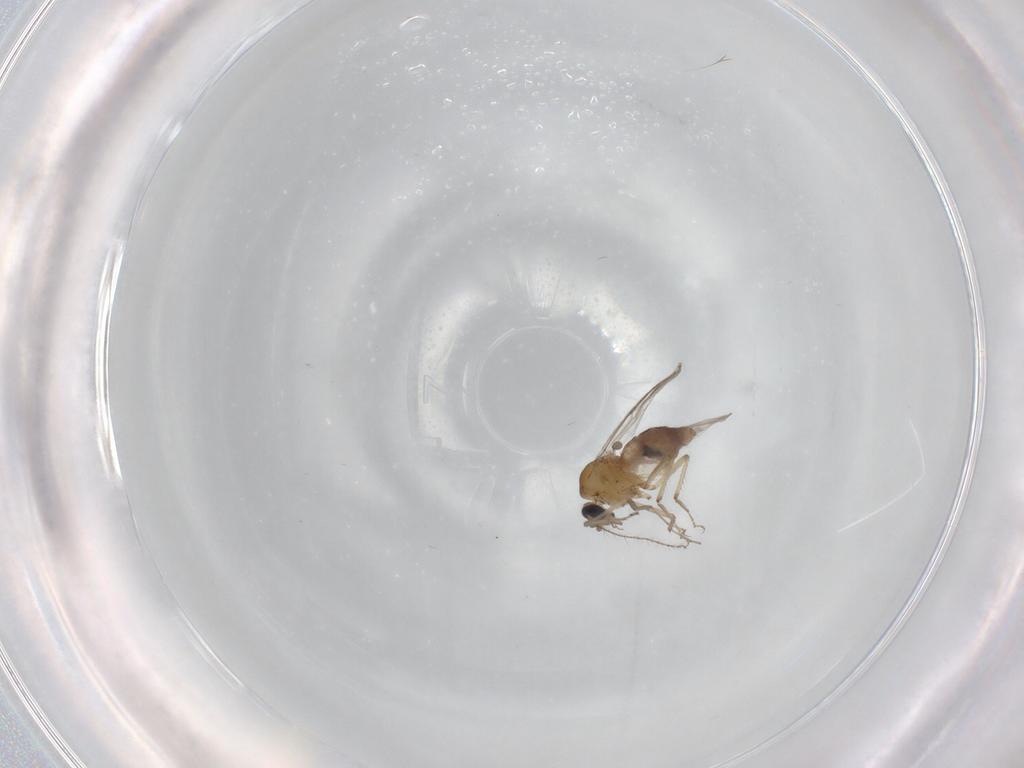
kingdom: Animalia
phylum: Arthropoda
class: Insecta
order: Diptera
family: Ceratopogonidae
